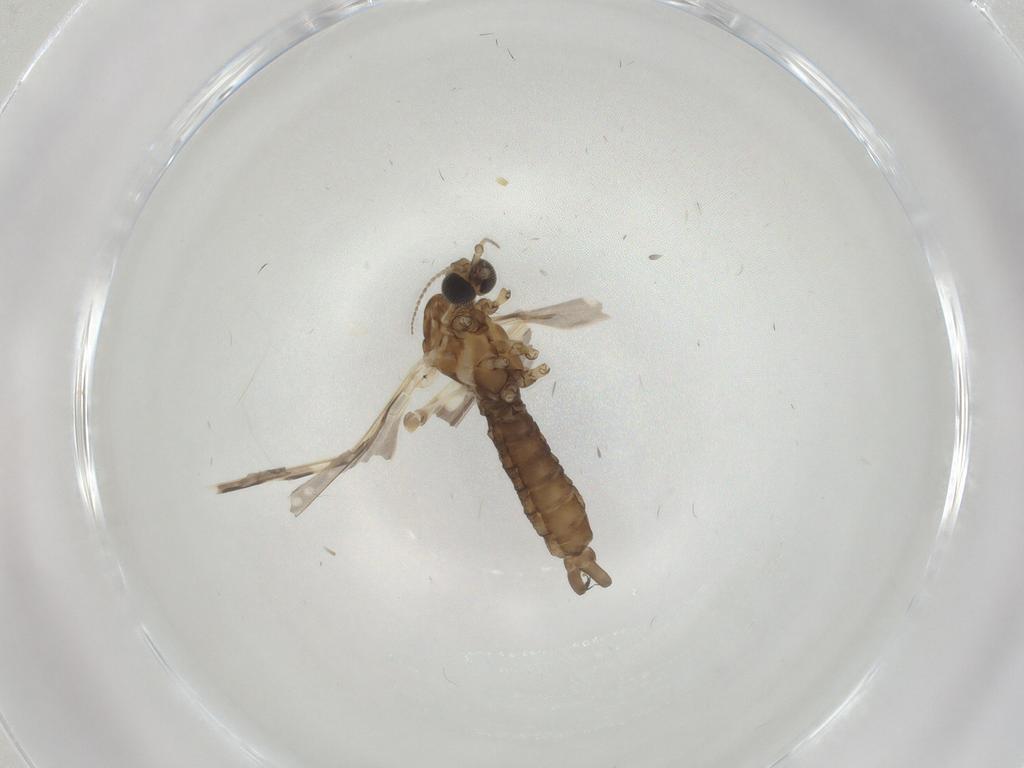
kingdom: Animalia
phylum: Arthropoda
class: Insecta
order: Diptera
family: Limoniidae
